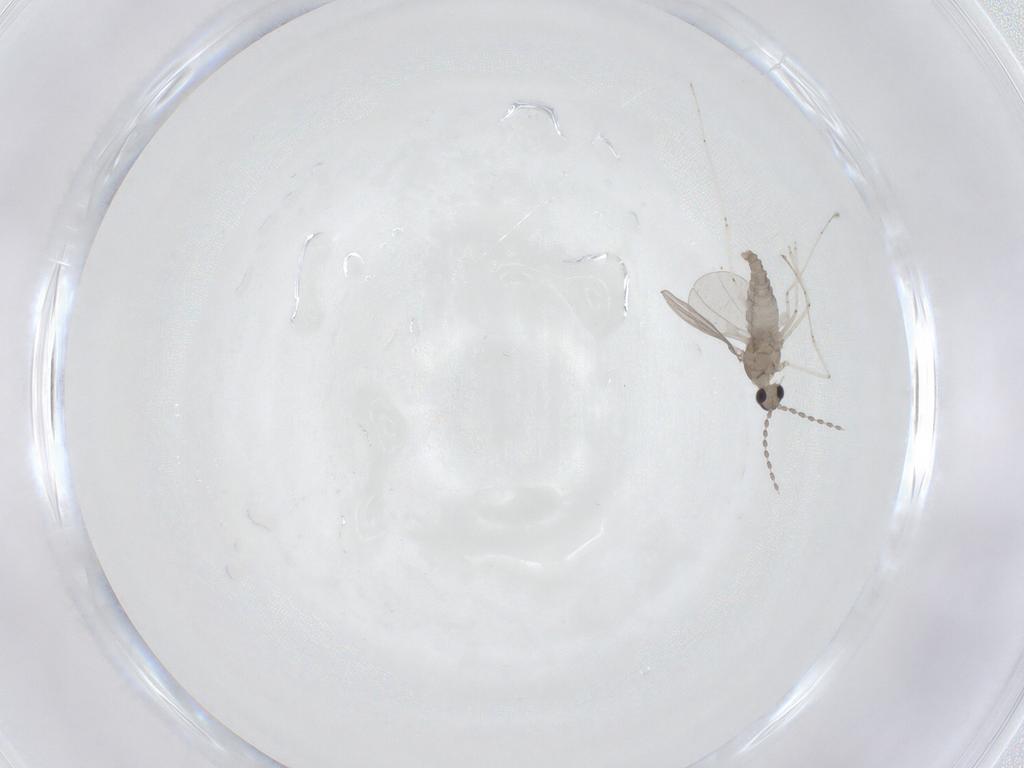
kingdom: Animalia
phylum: Arthropoda
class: Insecta
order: Diptera
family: Cecidomyiidae
